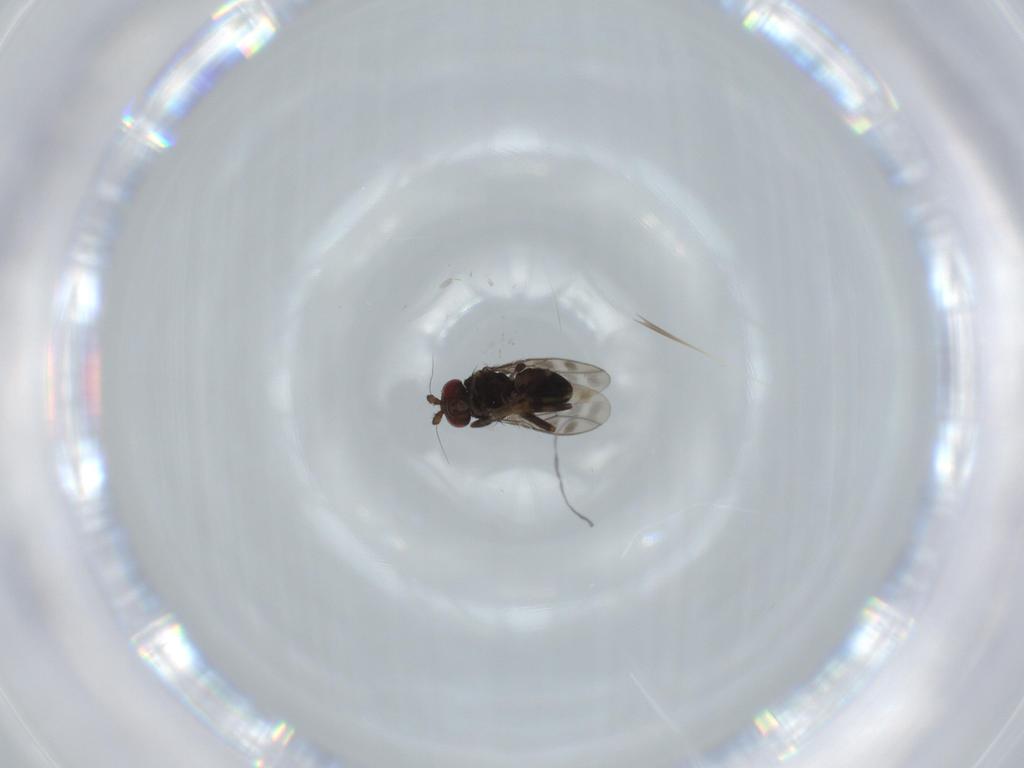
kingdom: Animalia
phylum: Arthropoda
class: Insecta
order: Diptera
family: Sphaeroceridae
